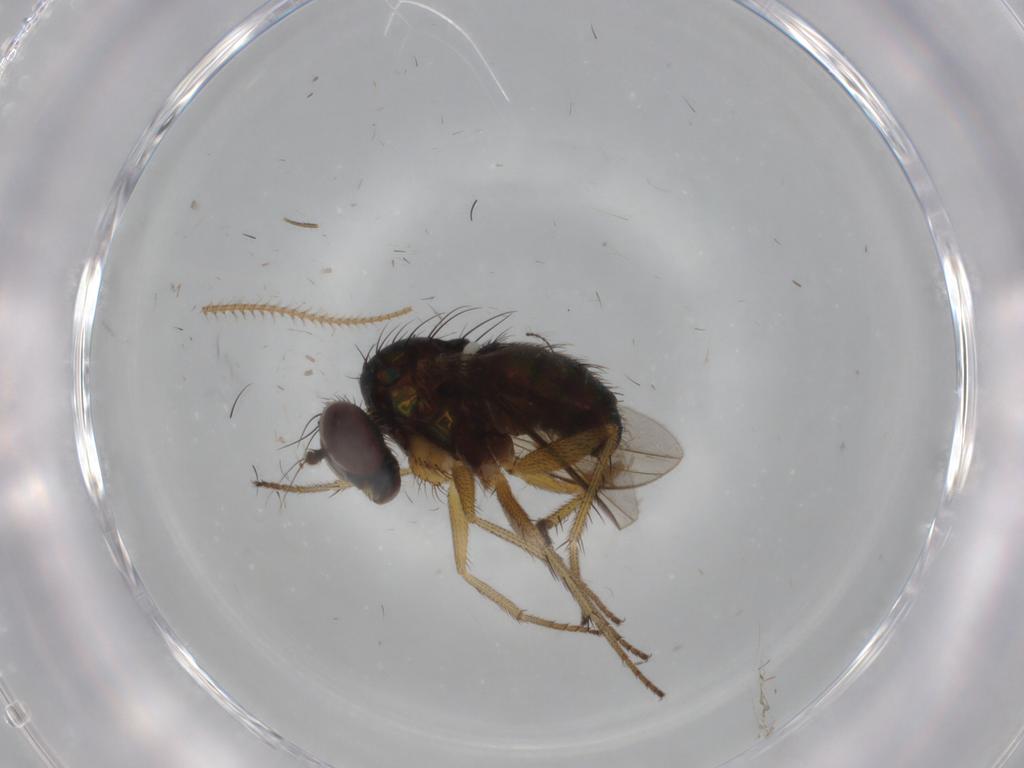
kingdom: Animalia
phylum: Arthropoda
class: Insecta
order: Diptera
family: Dolichopodidae
